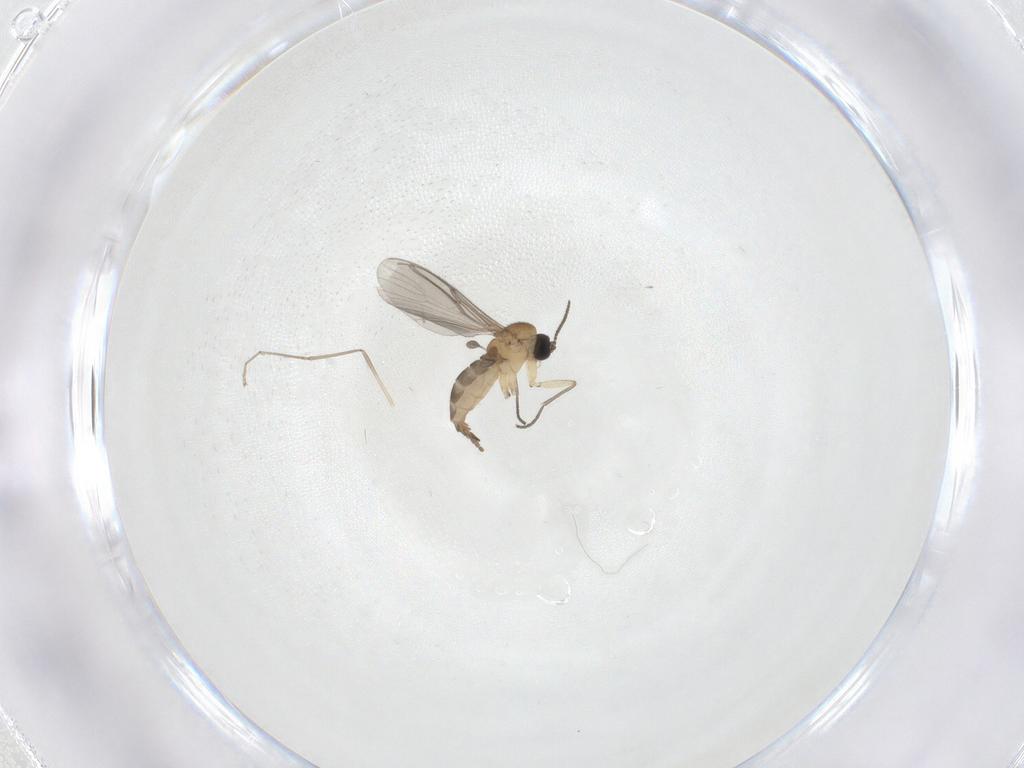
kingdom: Animalia
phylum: Arthropoda
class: Insecta
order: Diptera
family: Sciaridae
